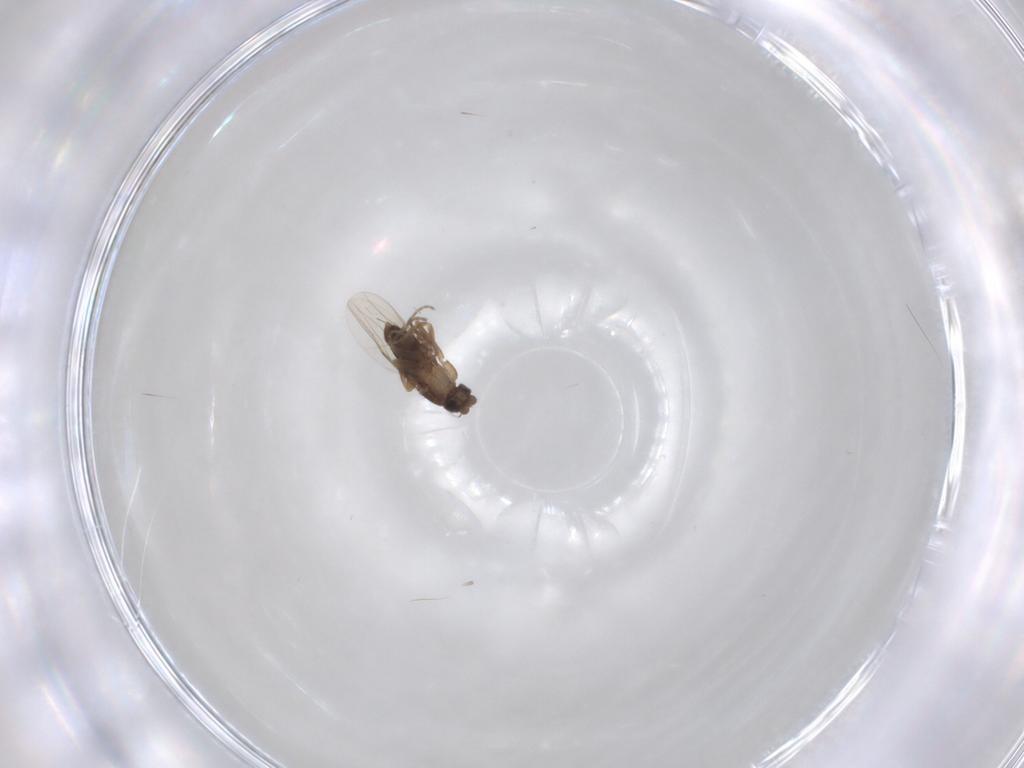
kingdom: Animalia
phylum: Arthropoda
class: Insecta
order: Diptera
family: Phoridae
